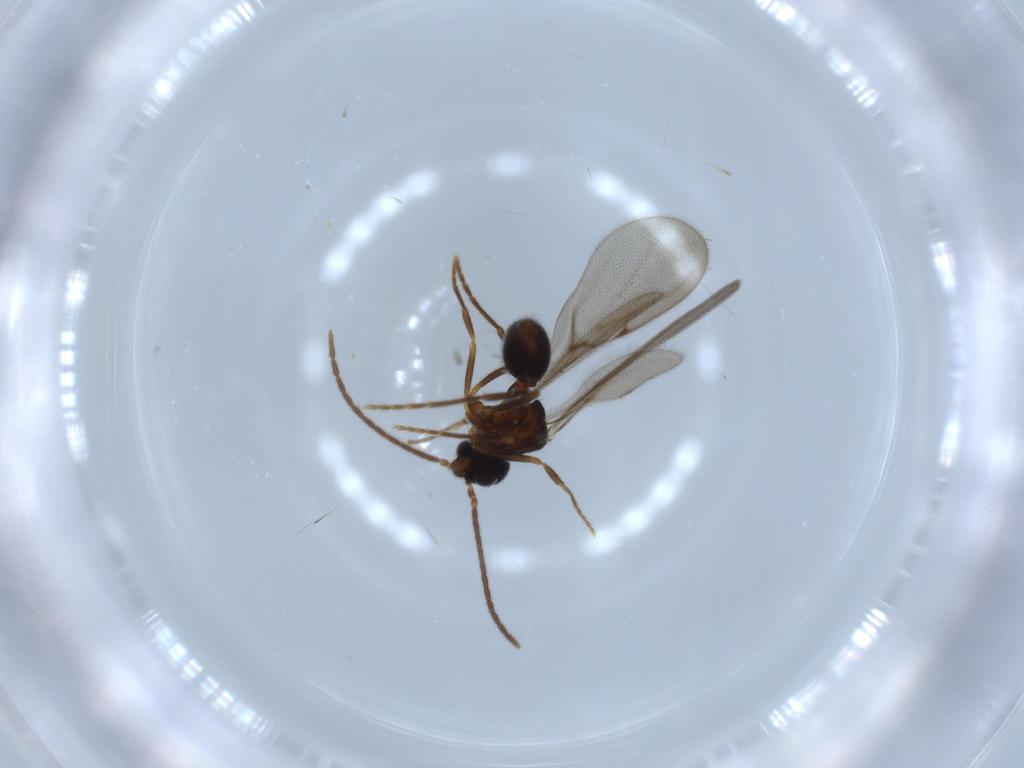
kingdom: Animalia
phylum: Arthropoda
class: Insecta
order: Hymenoptera
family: Formicidae
